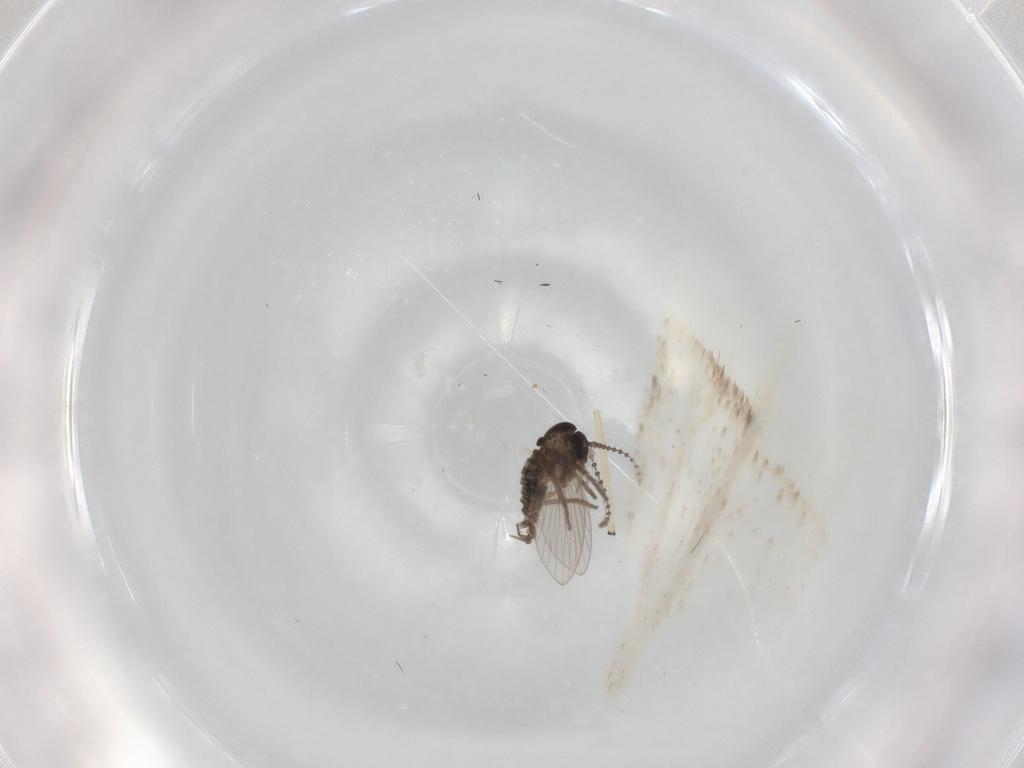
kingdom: Animalia
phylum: Arthropoda
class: Insecta
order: Diptera
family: Psychodidae
